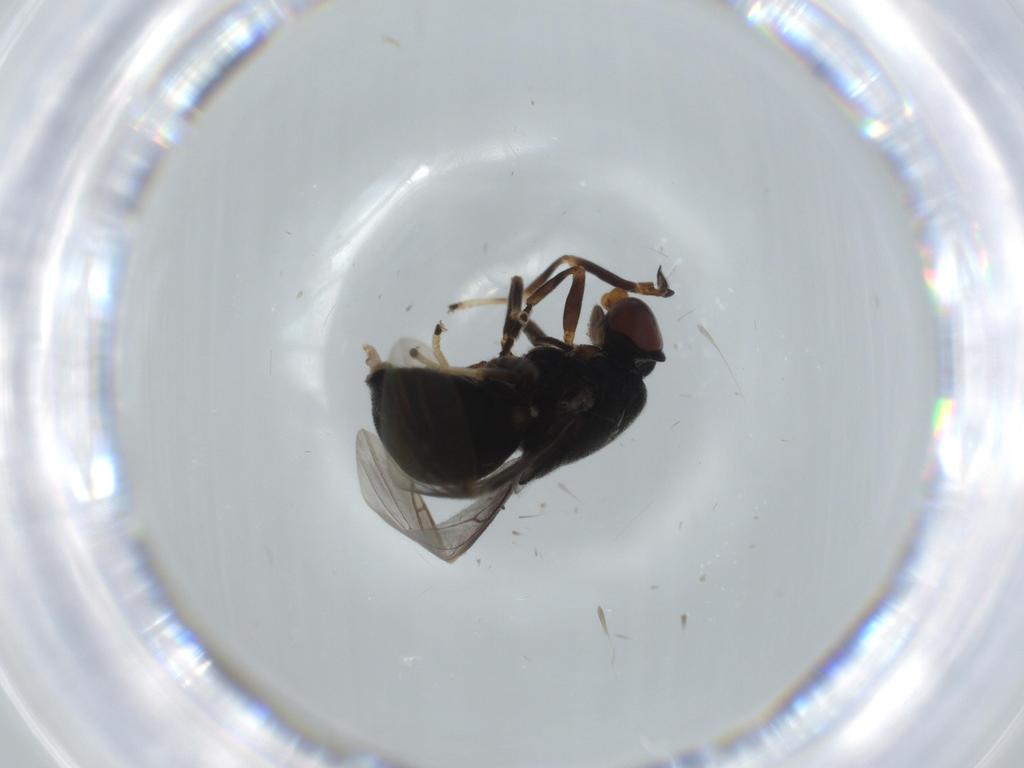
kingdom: Animalia
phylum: Arthropoda
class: Insecta
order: Diptera
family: Stratiomyidae
